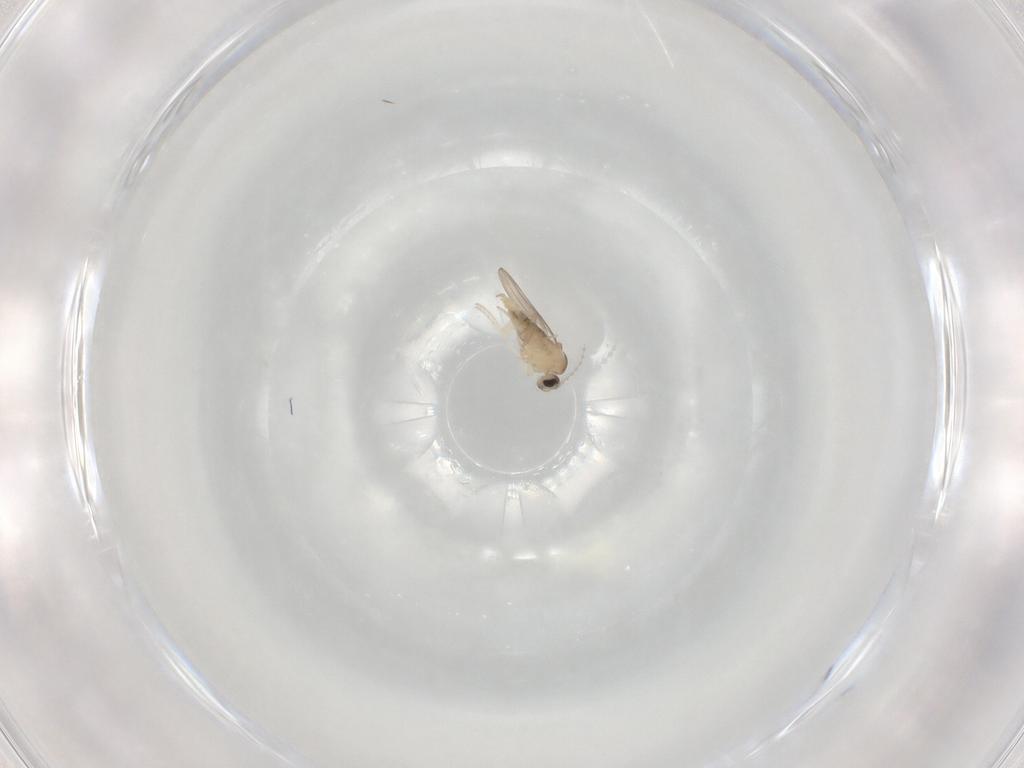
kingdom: Animalia
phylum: Arthropoda
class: Insecta
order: Diptera
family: Cecidomyiidae
